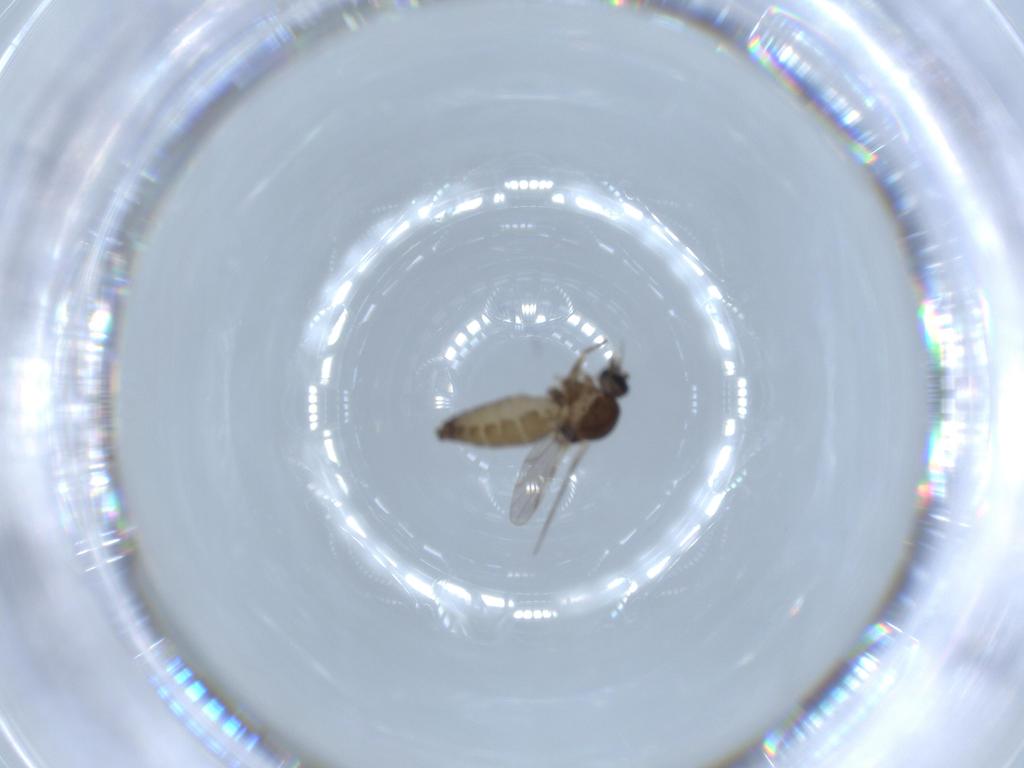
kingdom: Animalia
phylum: Arthropoda
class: Insecta
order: Diptera
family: Ceratopogonidae
